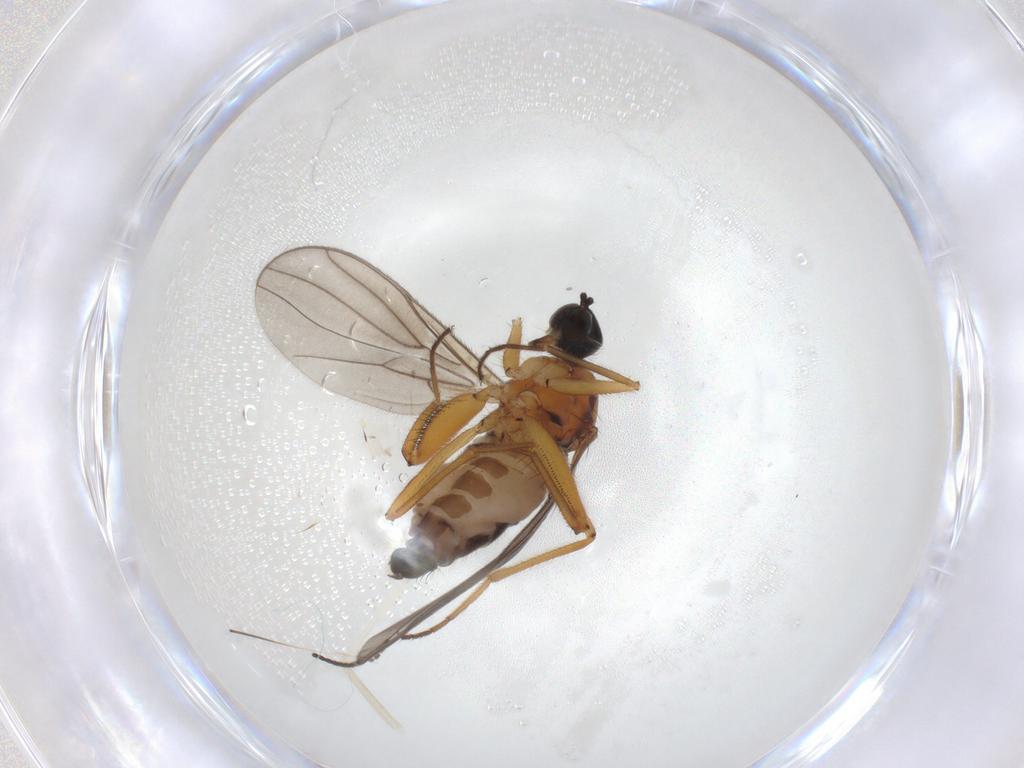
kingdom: Animalia
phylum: Arthropoda
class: Insecta
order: Diptera
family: Hybotidae
